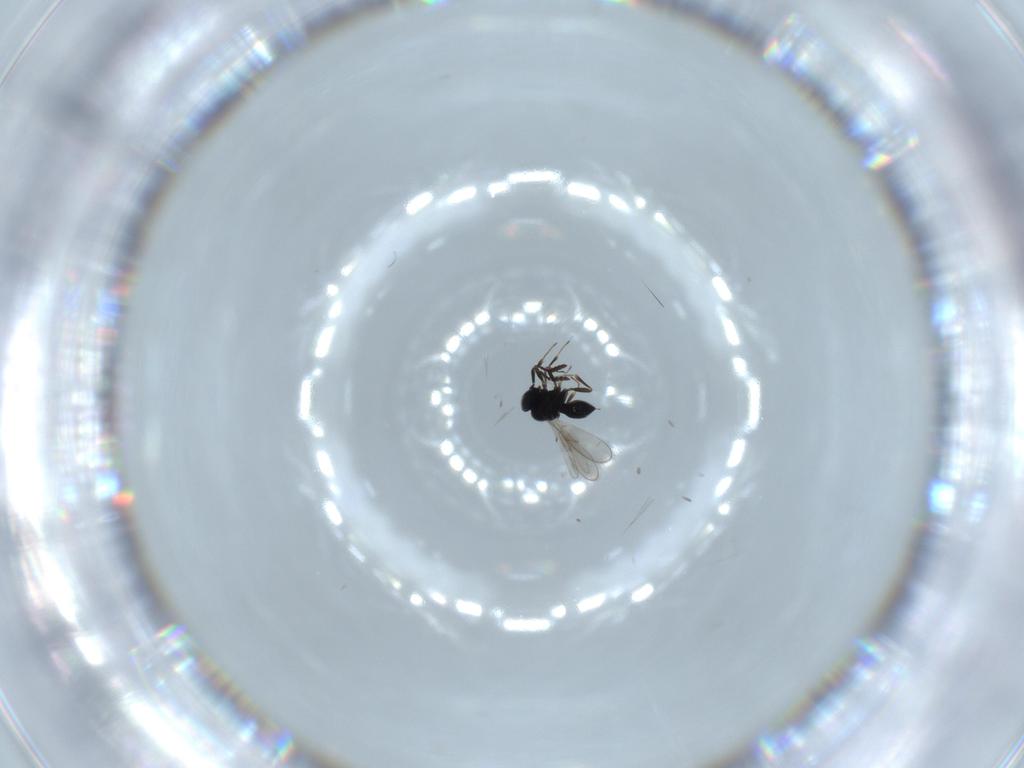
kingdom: Animalia
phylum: Arthropoda
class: Insecta
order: Hymenoptera
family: Scelionidae
